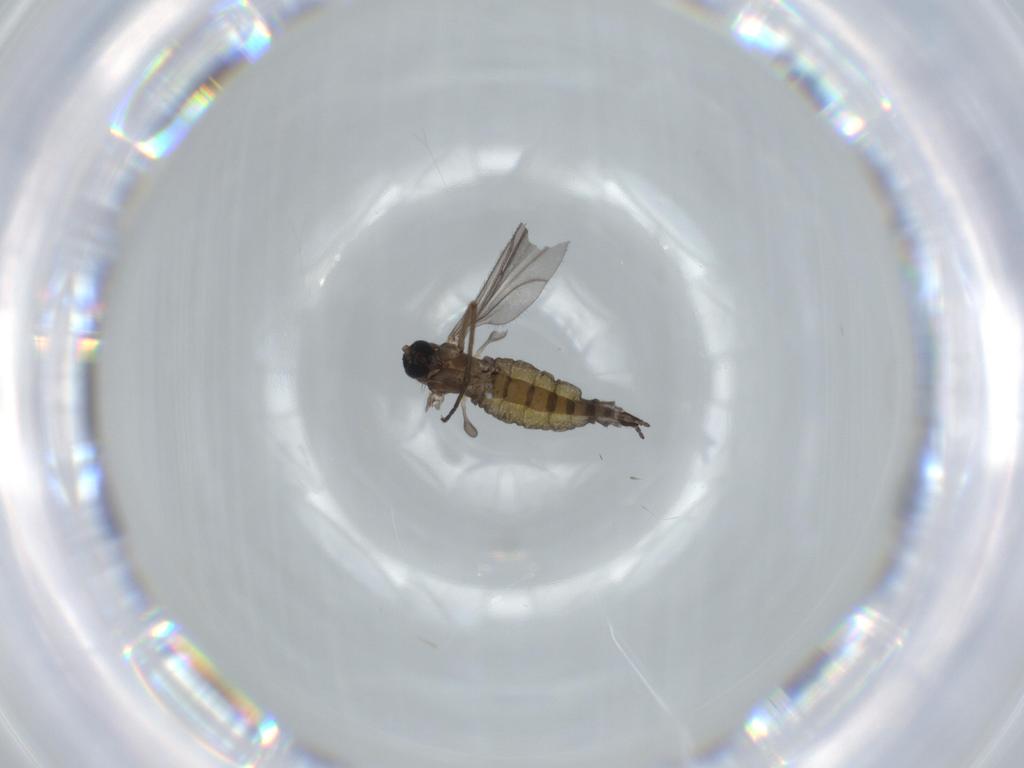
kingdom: Animalia
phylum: Arthropoda
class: Insecta
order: Diptera
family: Sciaridae
